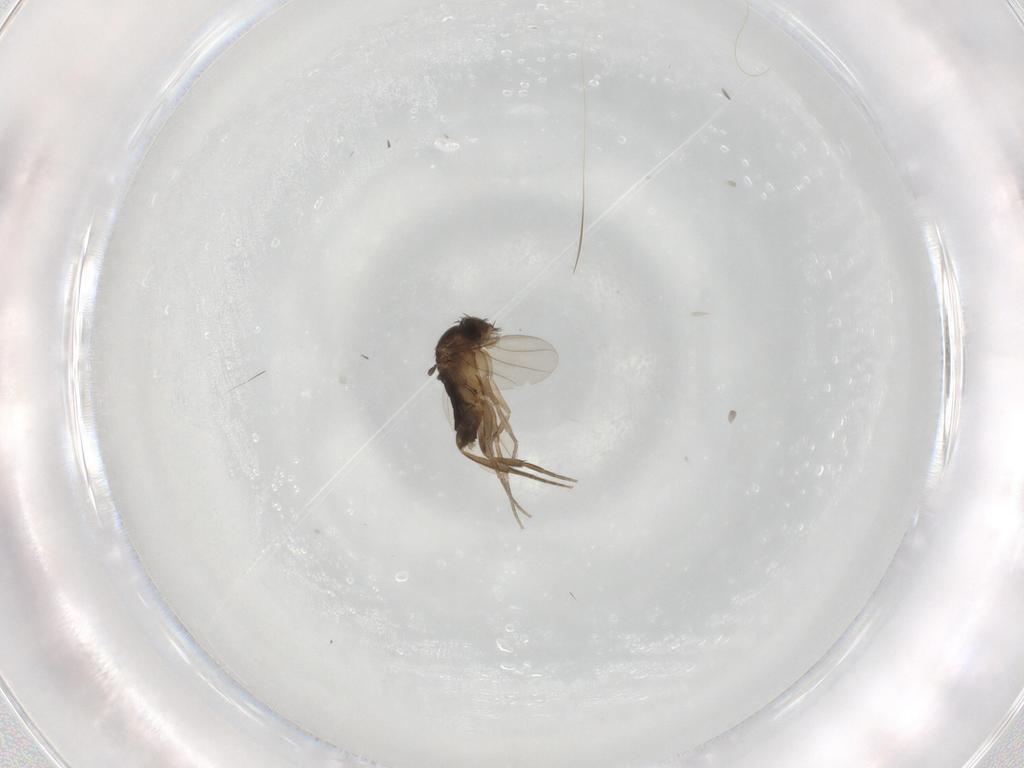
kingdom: Animalia
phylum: Arthropoda
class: Insecta
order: Diptera
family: Phoridae
